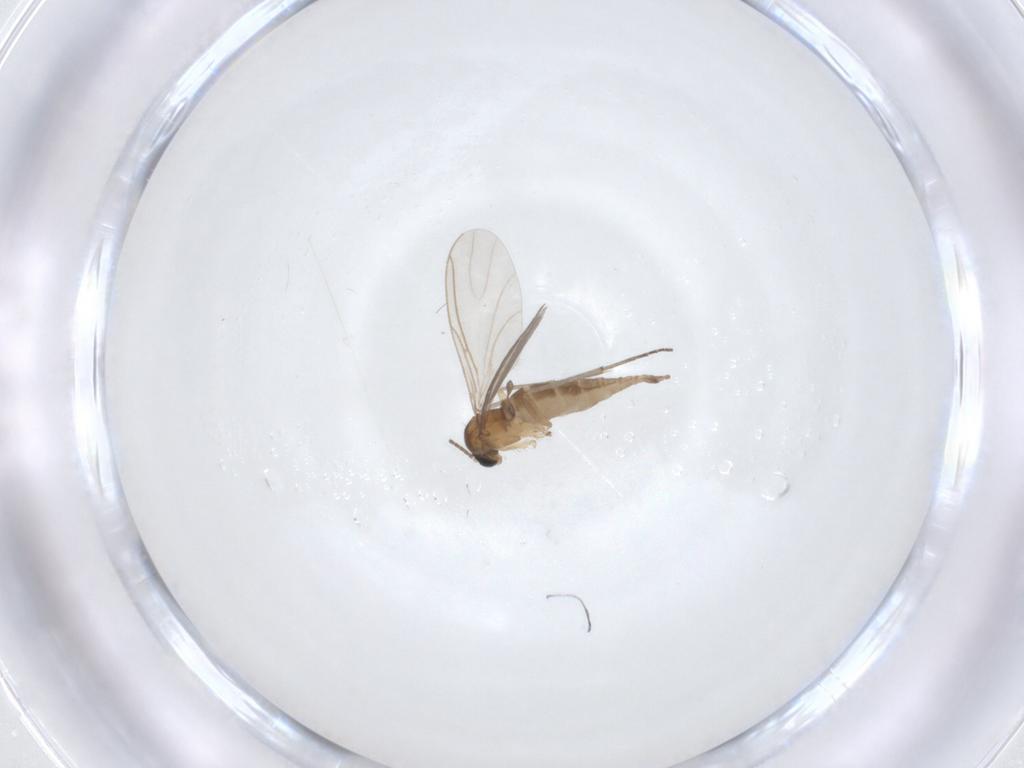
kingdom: Animalia
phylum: Arthropoda
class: Insecta
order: Diptera
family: Sciaridae
